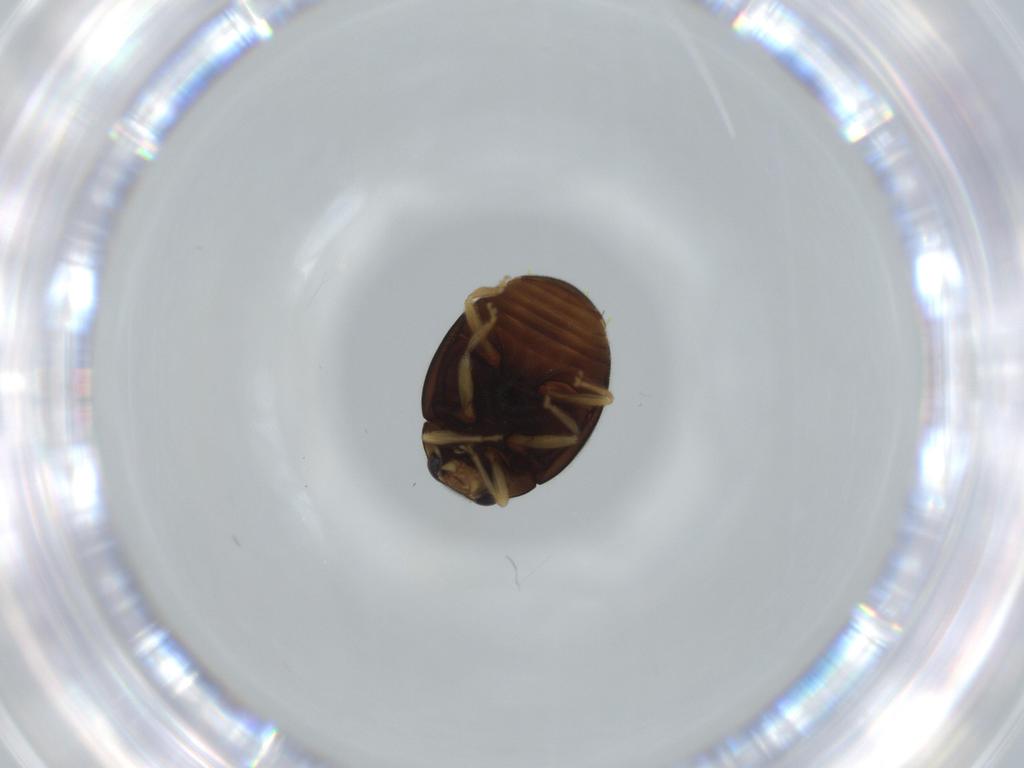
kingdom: Animalia
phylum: Arthropoda
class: Insecta
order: Coleoptera
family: Coccinellidae
